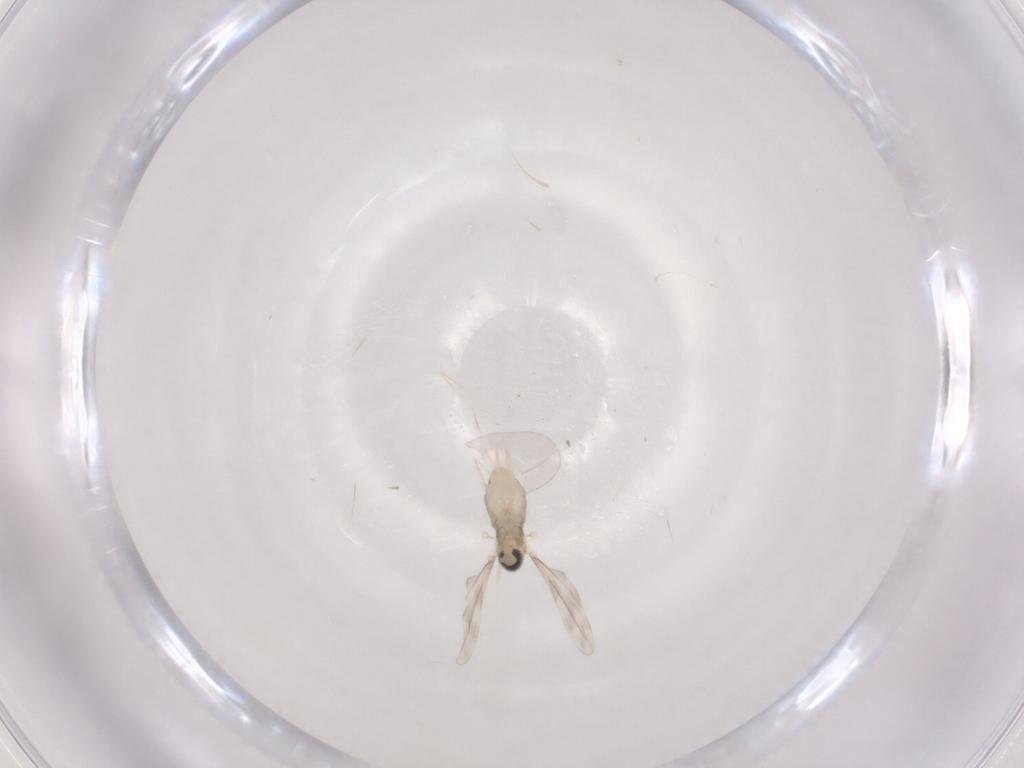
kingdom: Animalia
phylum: Arthropoda
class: Insecta
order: Diptera
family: Cecidomyiidae
